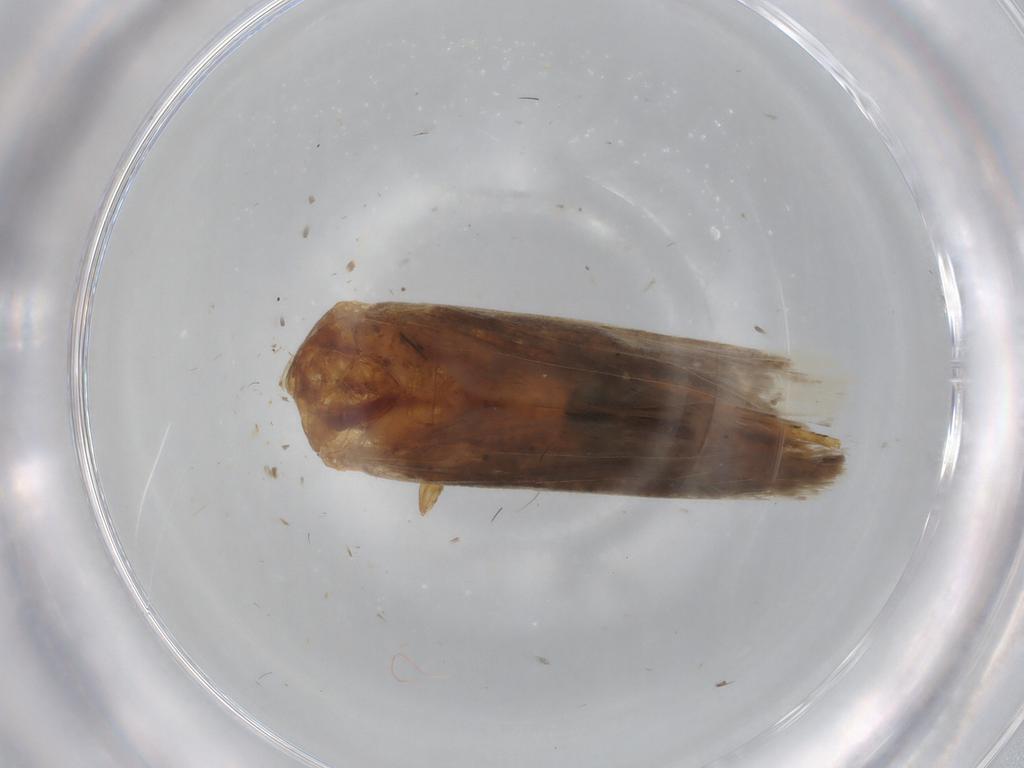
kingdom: Animalia
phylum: Arthropoda
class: Insecta
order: Lepidoptera
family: Gelechiidae
